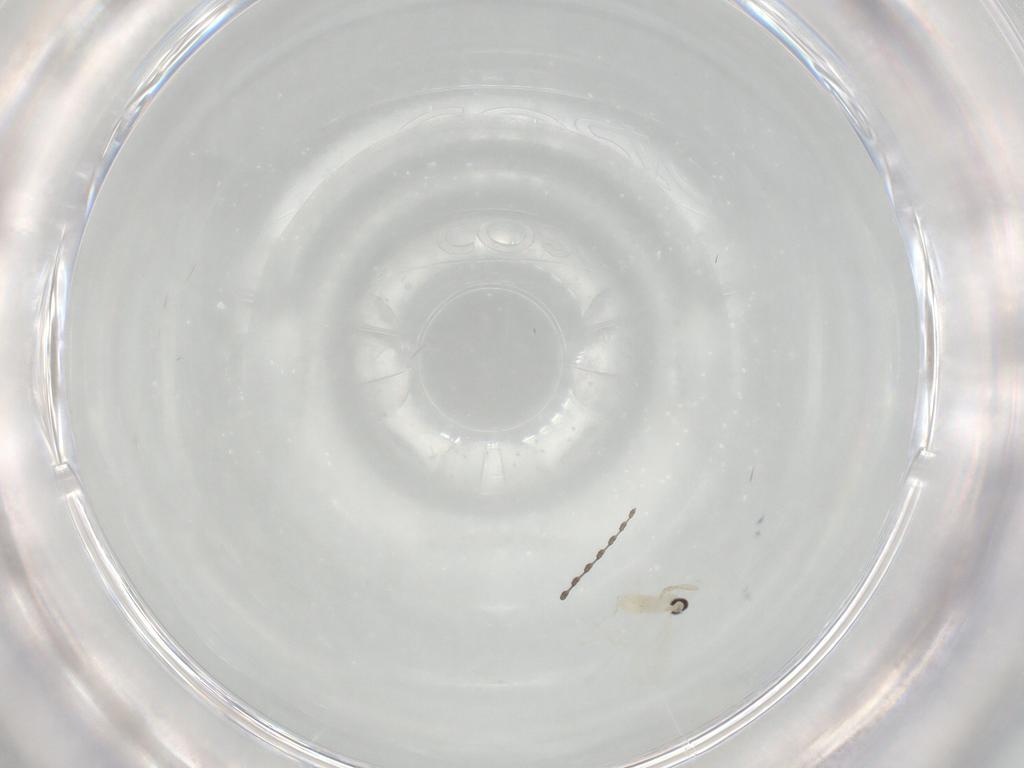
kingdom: Animalia
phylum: Arthropoda
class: Insecta
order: Diptera
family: Cecidomyiidae
